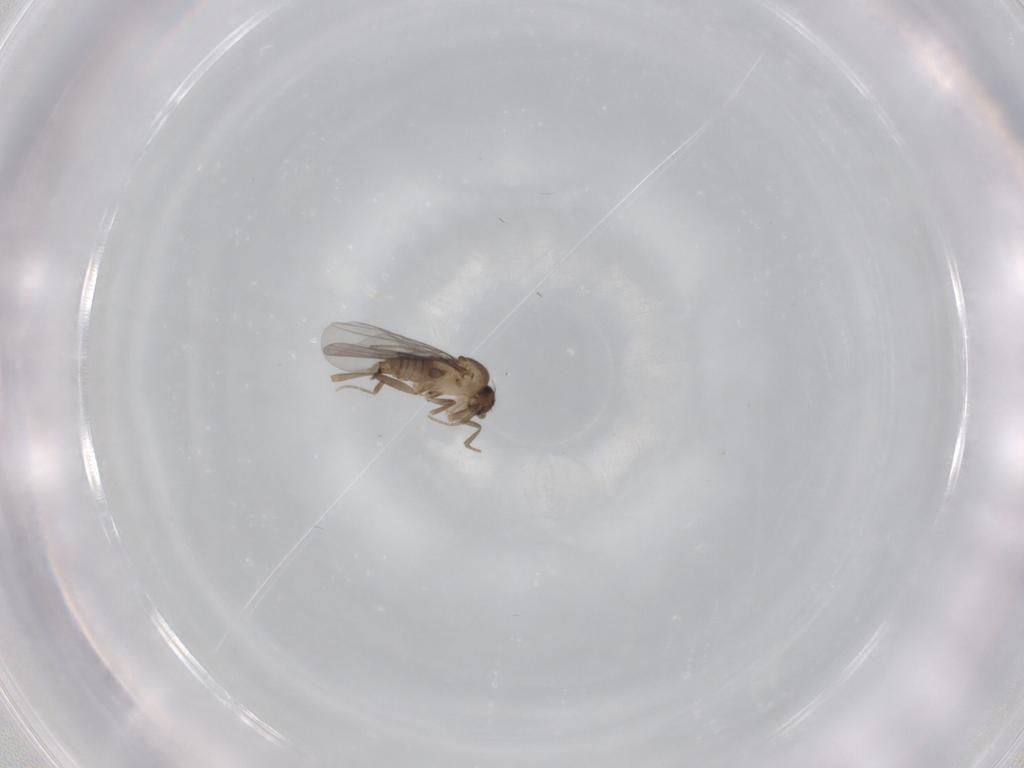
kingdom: Animalia
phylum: Arthropoda
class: Insecta
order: Diptera
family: Cecidomyiidae
